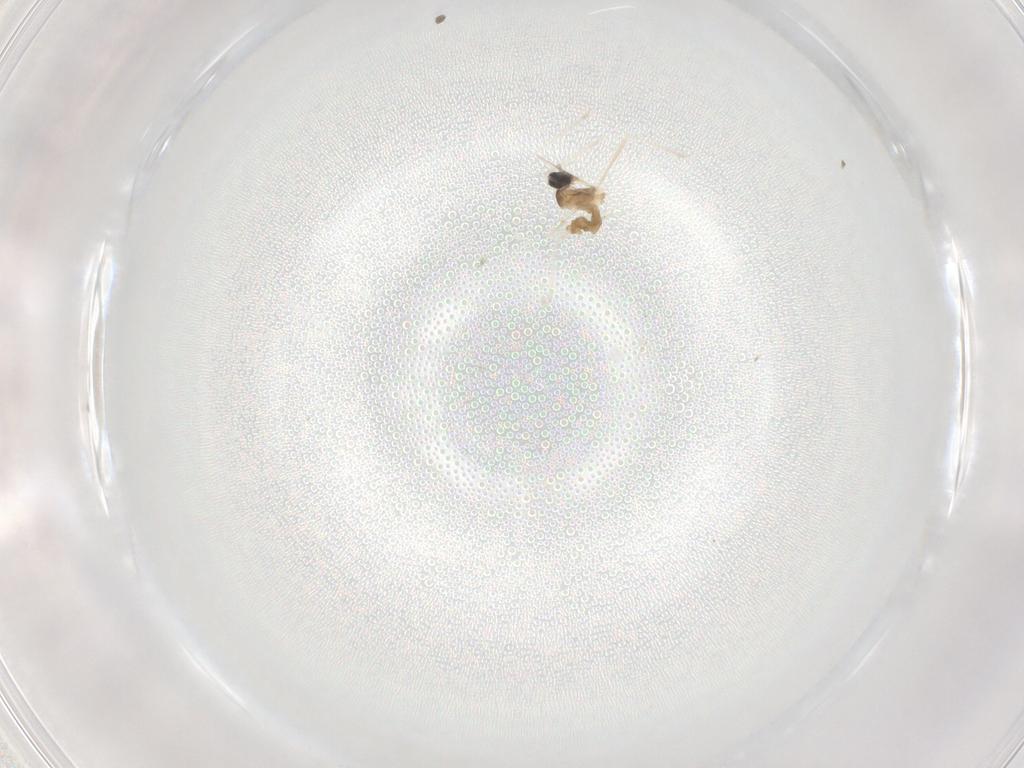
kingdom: Animalia
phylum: Arthropoda
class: Insecta
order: Diptera
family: Cecidomyiidae
